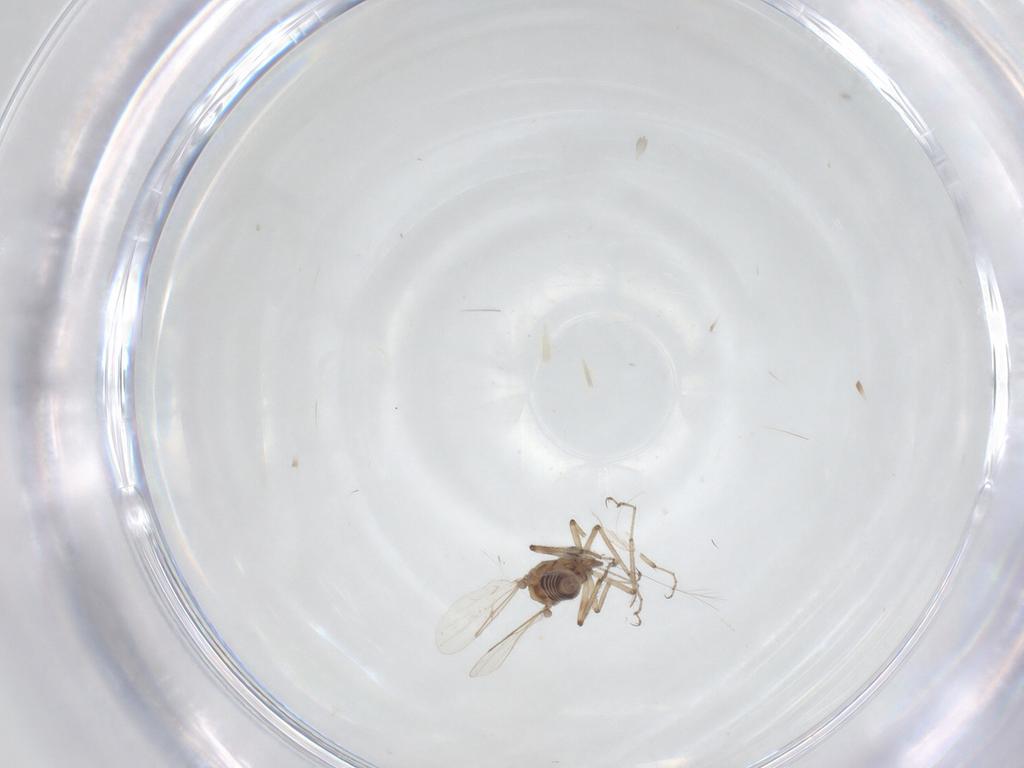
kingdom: Animalia
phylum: Arthropoda
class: Insecta
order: Diptera
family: Ceratopogonidae
